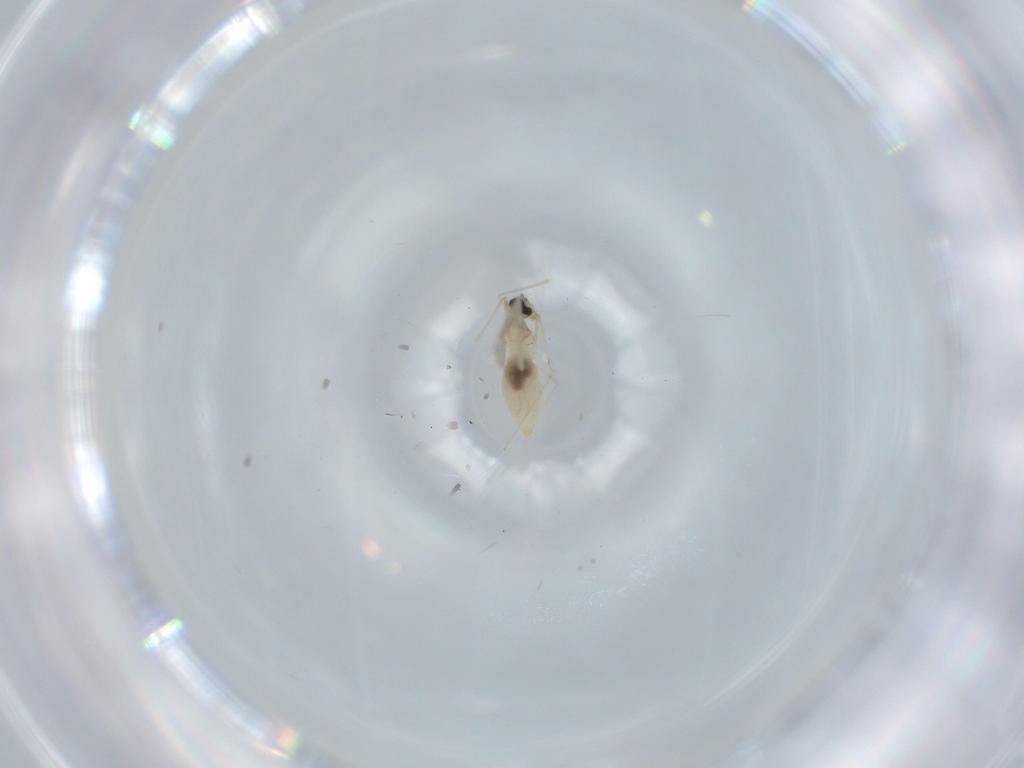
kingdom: Animalia
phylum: Arthropoda
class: Insecta
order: Diptera
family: Cecidomyiidae
